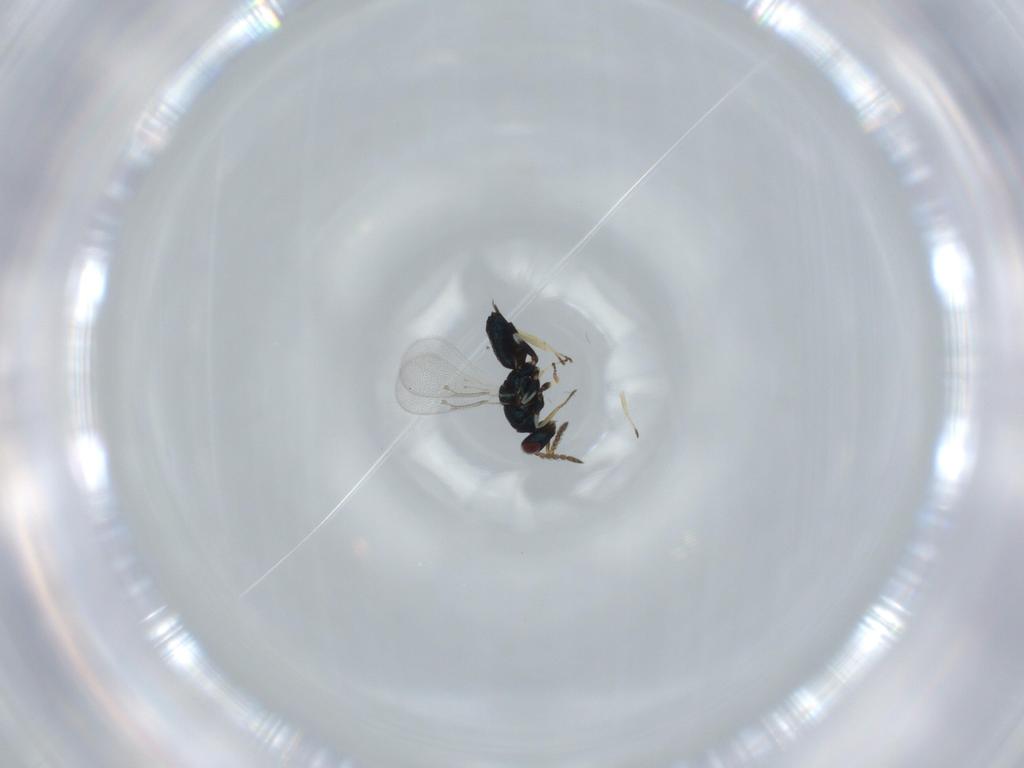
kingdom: Animalia
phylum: Arthropoda
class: Insecta
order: Hymenoptera
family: Eulophidae
